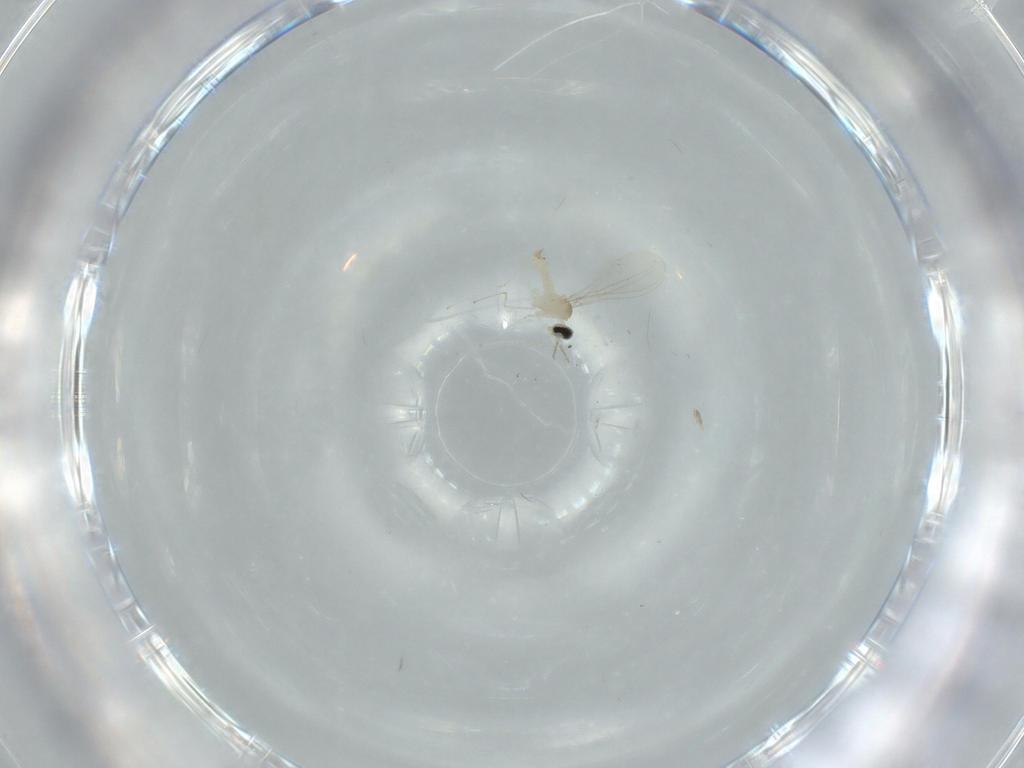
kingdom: Animalia
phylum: Arthropoda
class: Insecta
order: Diptera
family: Cecidomyiidae
